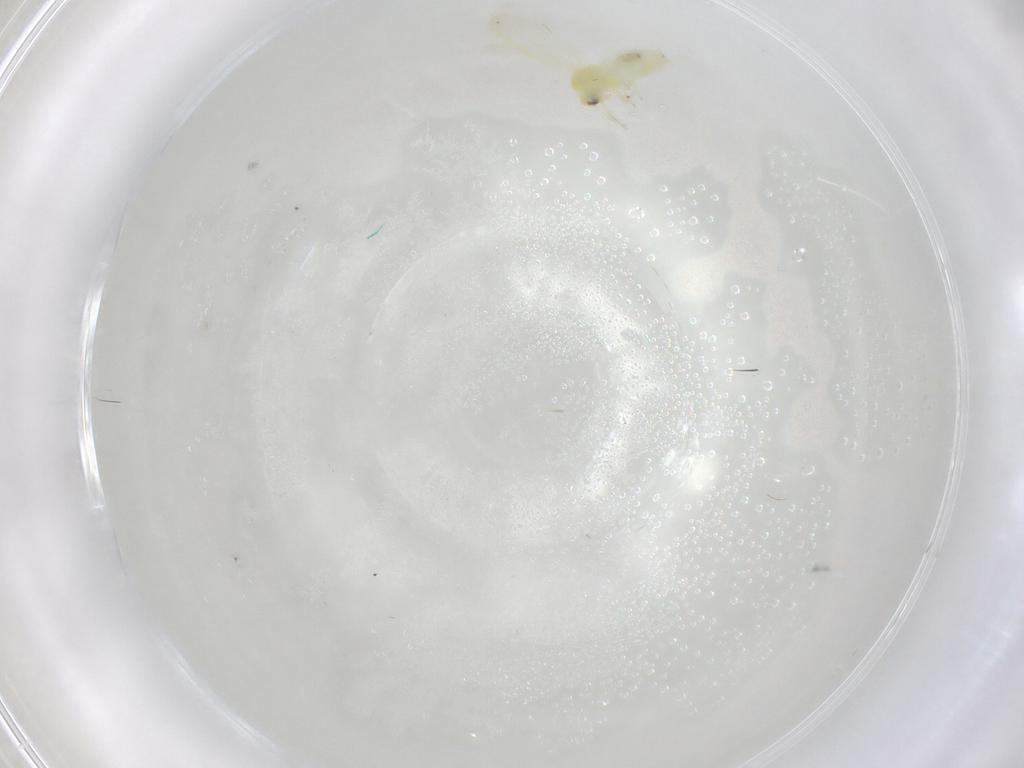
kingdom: Animalia
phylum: Arthropoda
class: Insecta
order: Diptera
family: Chironomidae
